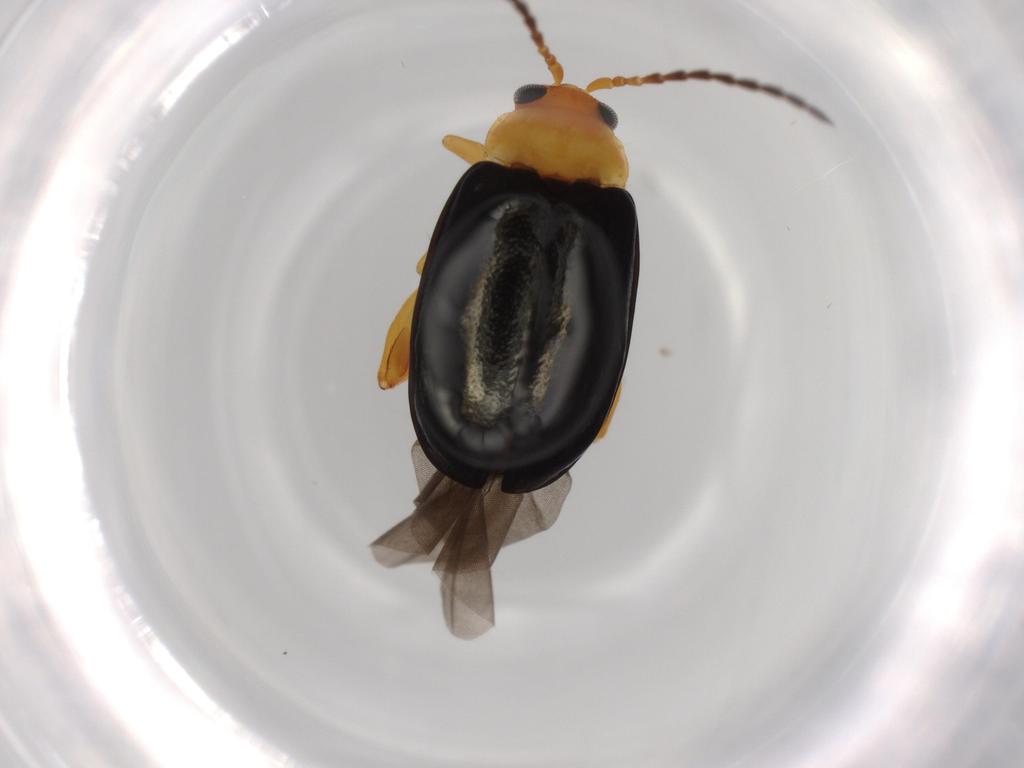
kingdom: Animalia
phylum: Arthropoda
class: Insecta
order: Coleoptera
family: Chrysomelidae
